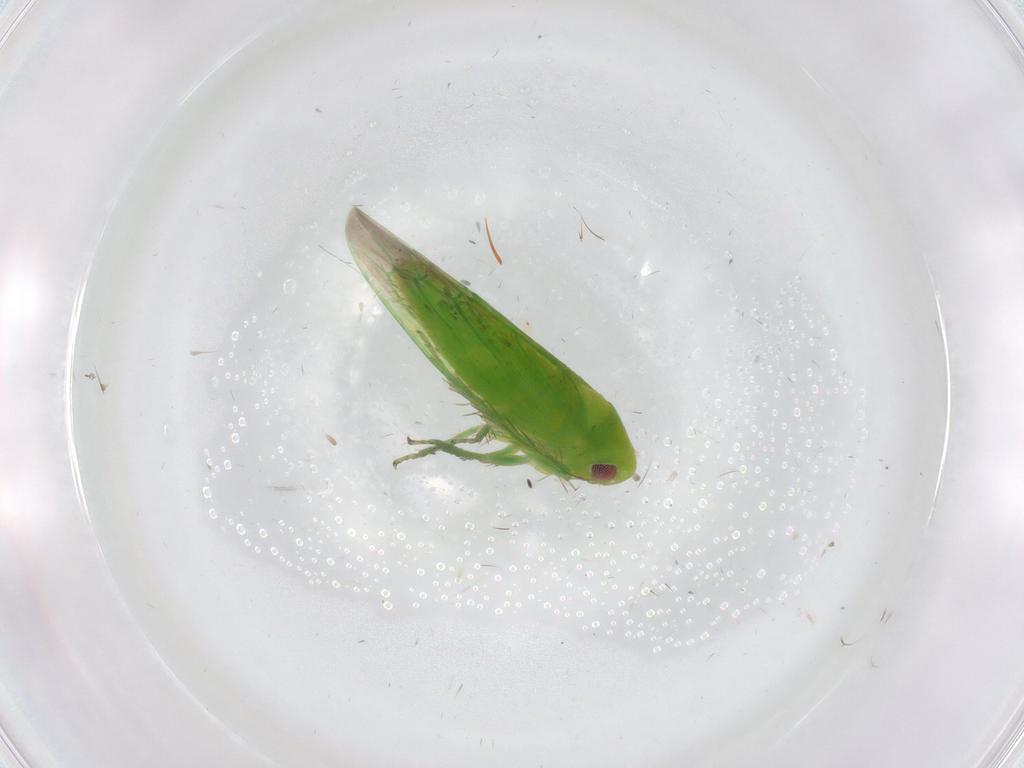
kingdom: Animalia
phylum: Arthropoda
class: Insecta
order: Hemiptera
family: Cicadellidae
